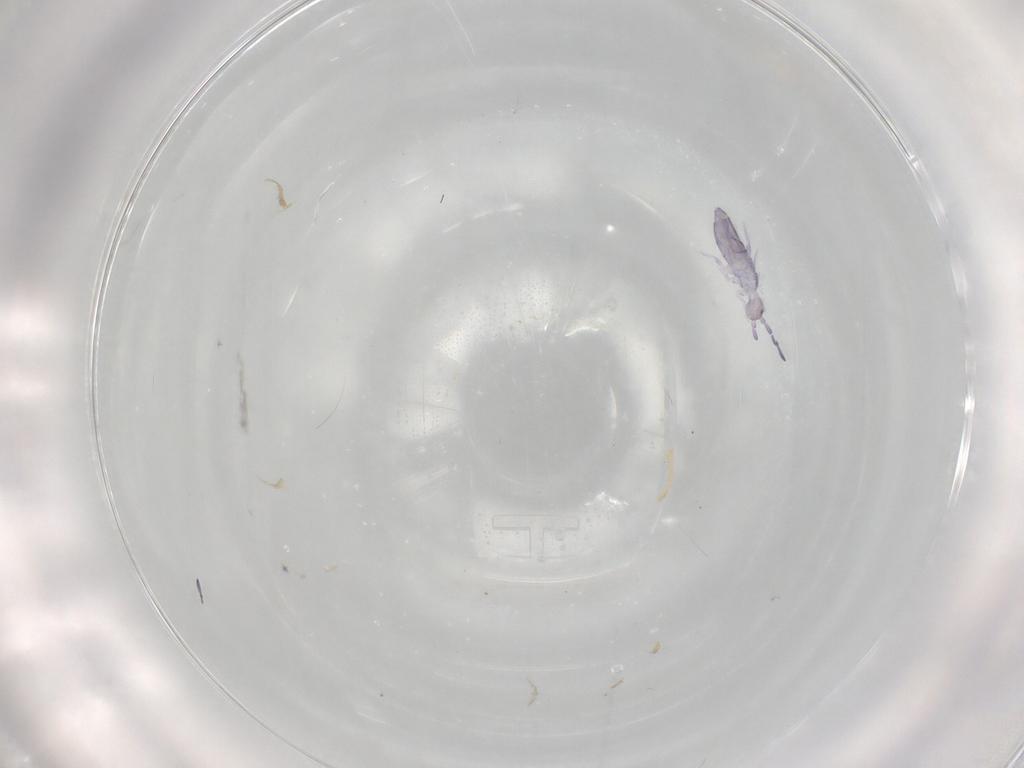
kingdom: Animalia
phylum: Arthropoda
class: Collembola
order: Entomobryomorpha
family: Entomobryidae
